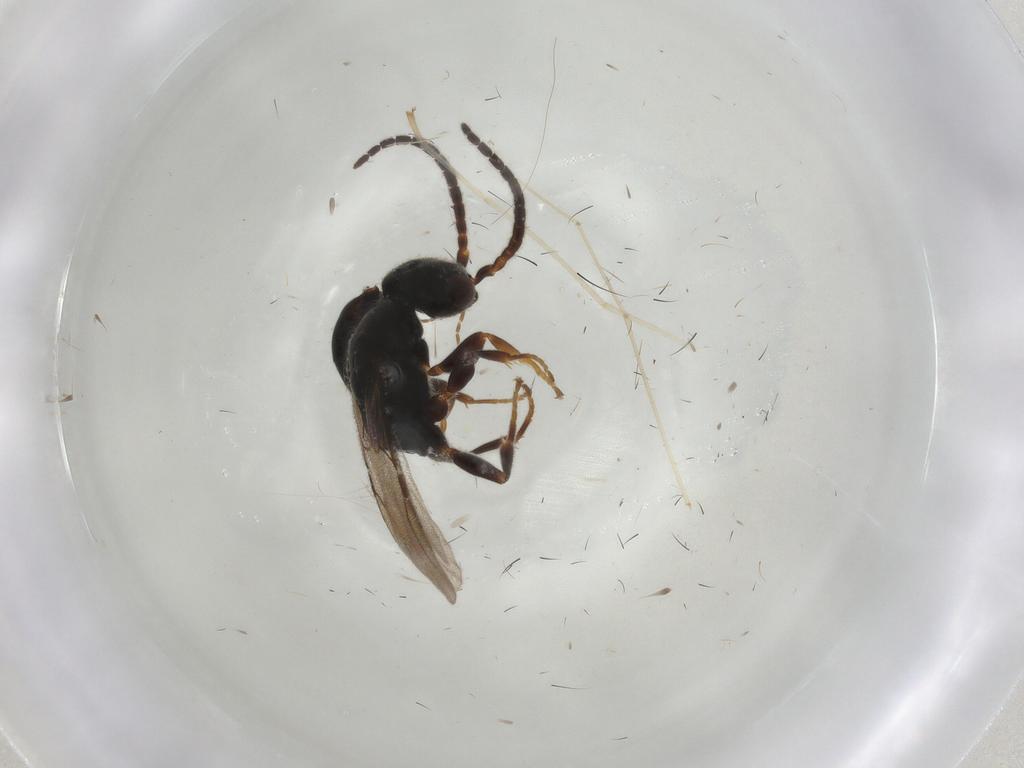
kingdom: Animalia
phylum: Arthropoda
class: Insecta
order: Hymenoptera
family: Bethylidae
